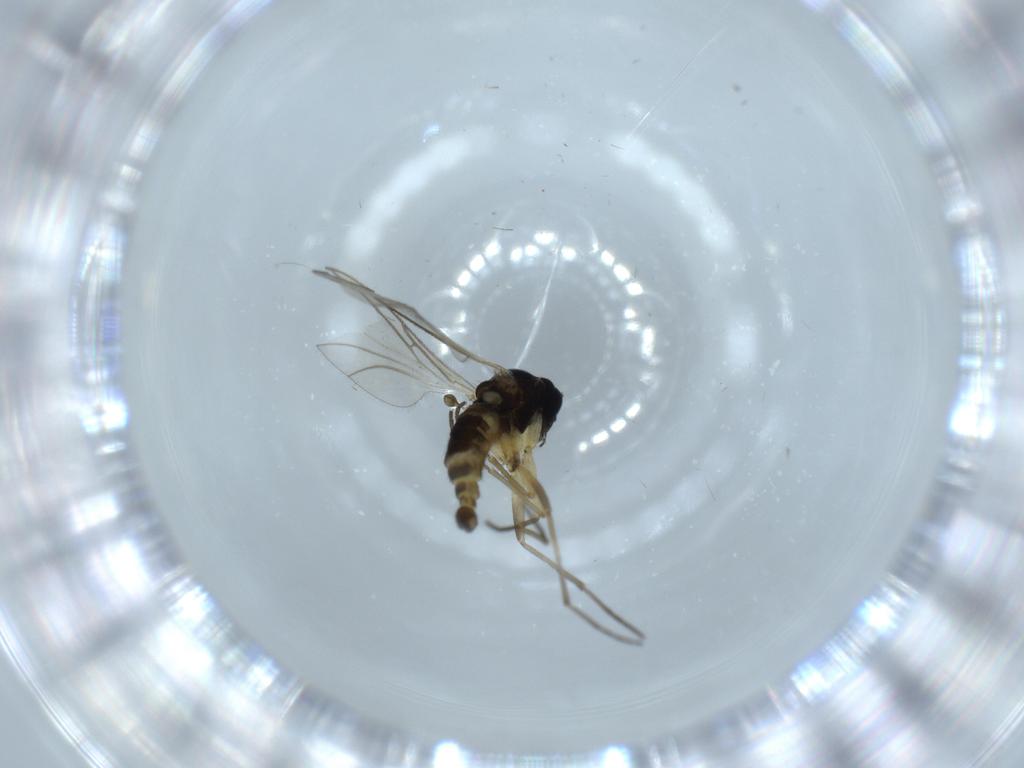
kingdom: Animalia
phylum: Arthropoda
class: Insecta
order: Diptera
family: Sciaridae
